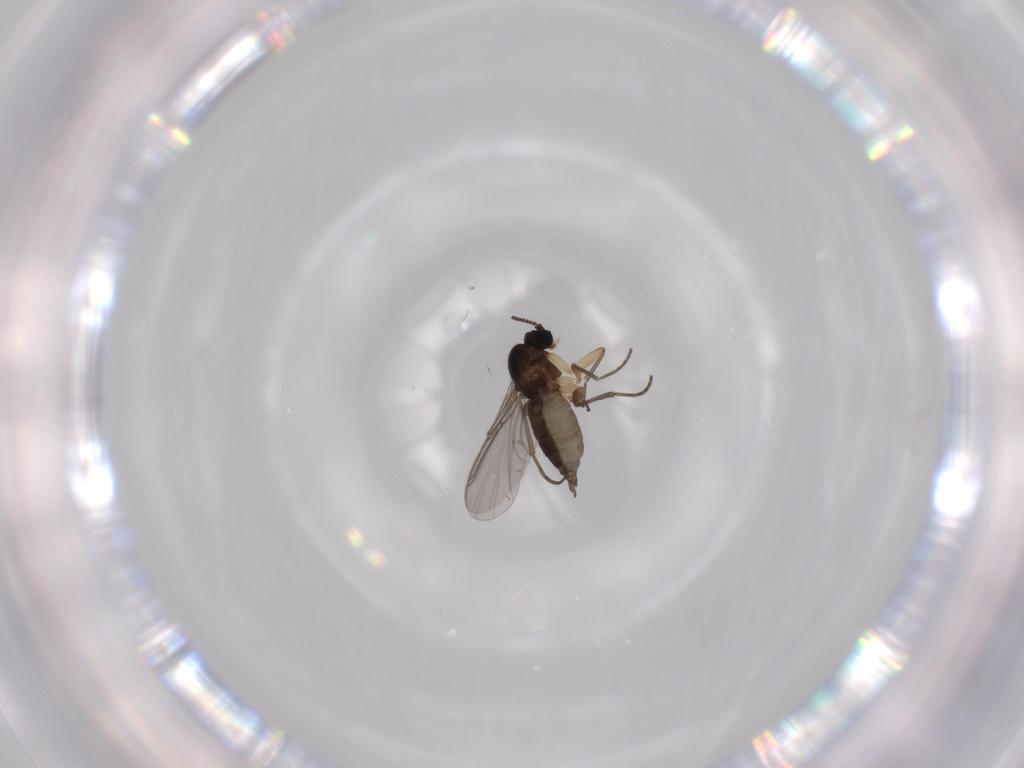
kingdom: Animalia
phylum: Arthropoda
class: Insecta
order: Diptera
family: Sciaridae
